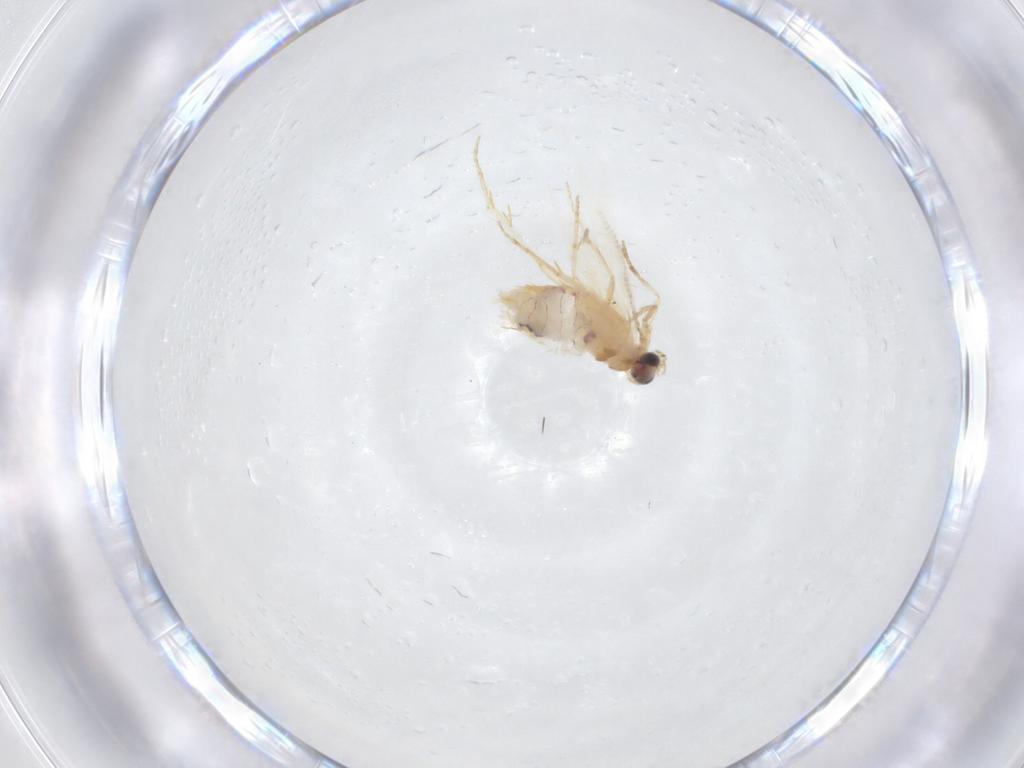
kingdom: Animalia
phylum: Arthropoda
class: Insecta
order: Lepidoptera
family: Nepticulidae
